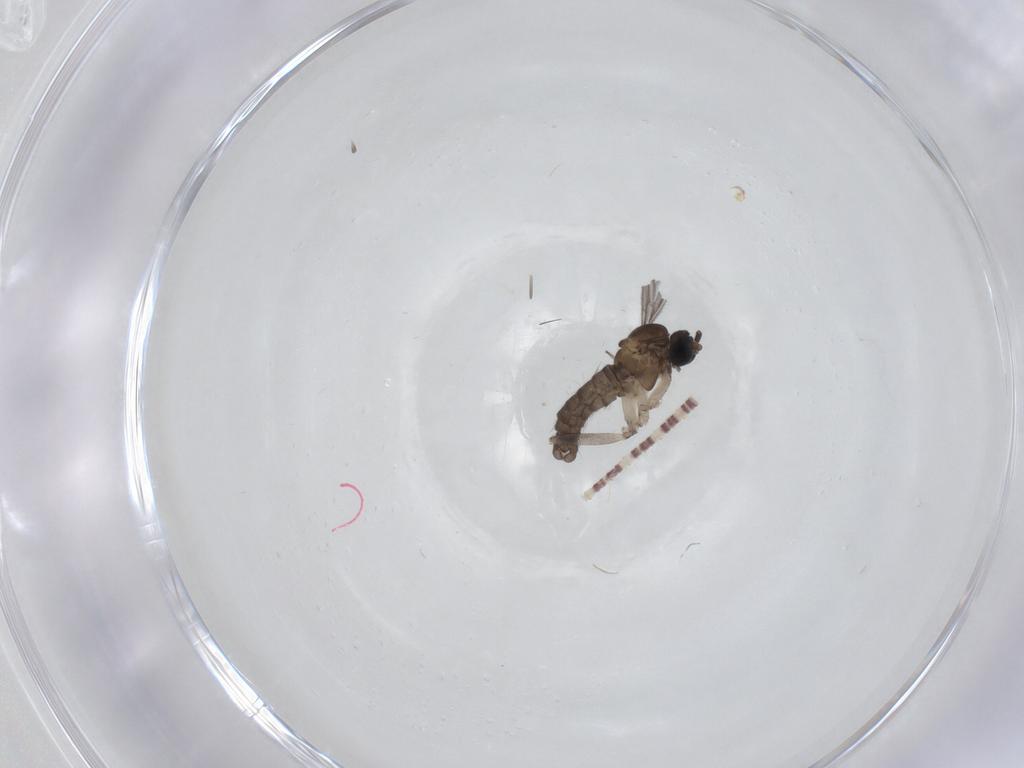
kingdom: Animalia
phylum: Arthropoda
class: Insecta
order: Diptera
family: Sciaridae
